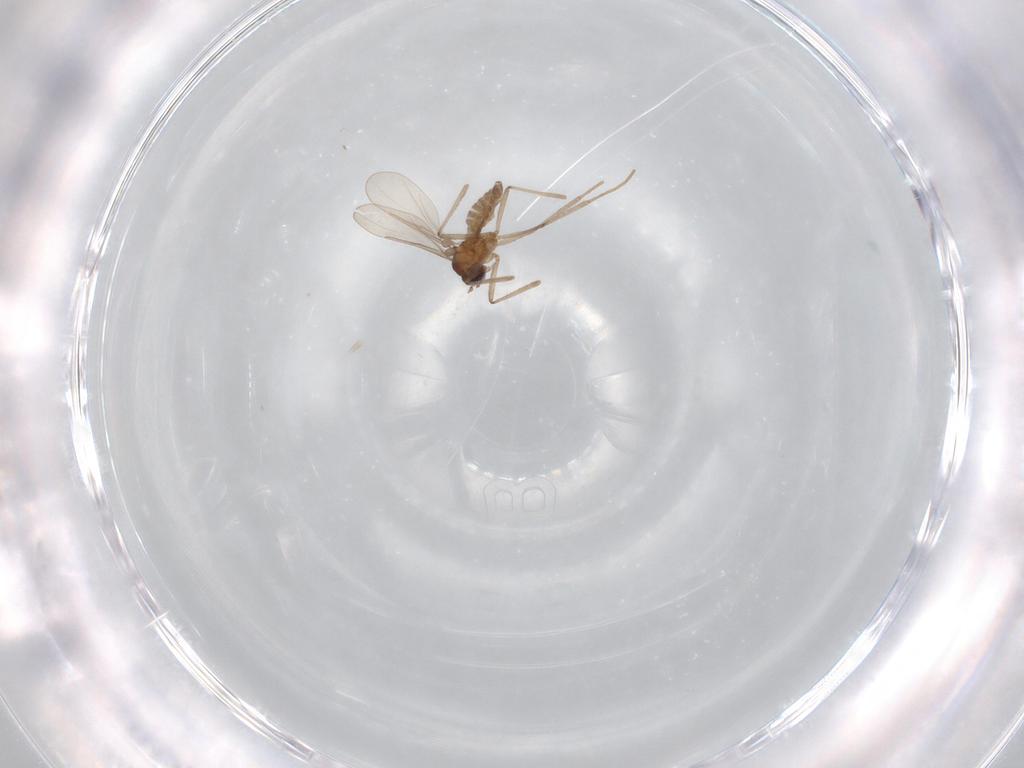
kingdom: Animalia
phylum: Arthropoda
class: Insecta
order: Diptera
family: Cecidomyiidae
